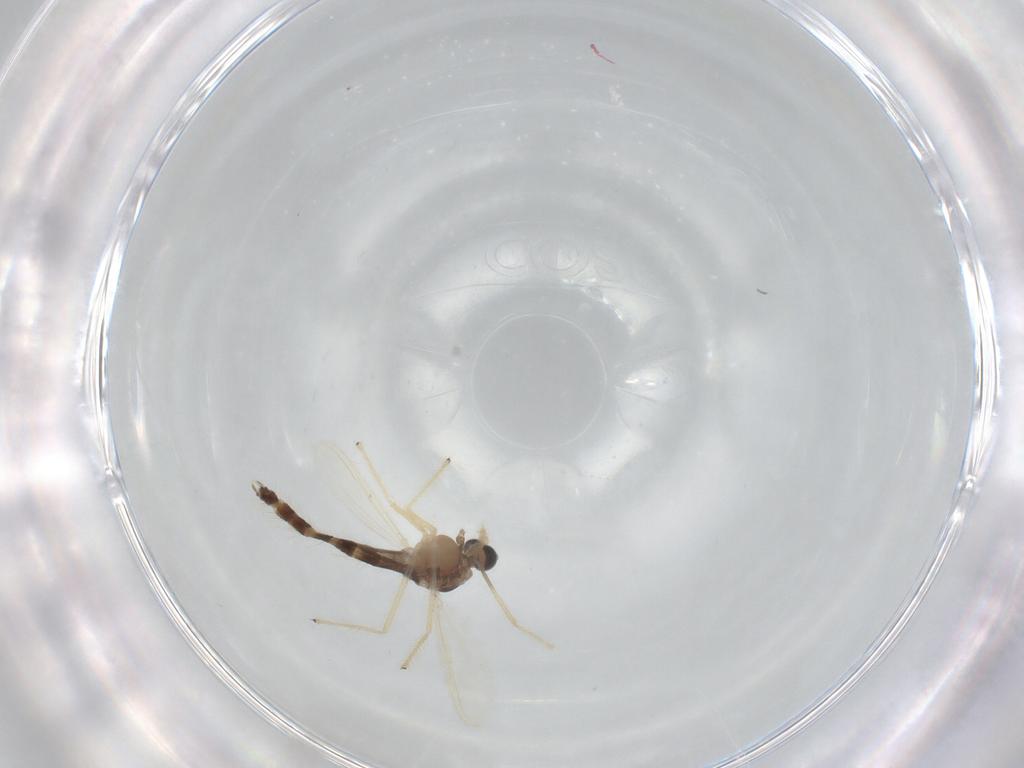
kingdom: Animalia
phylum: Arthropoda
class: Insecta
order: Diptera
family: Chironomidae
